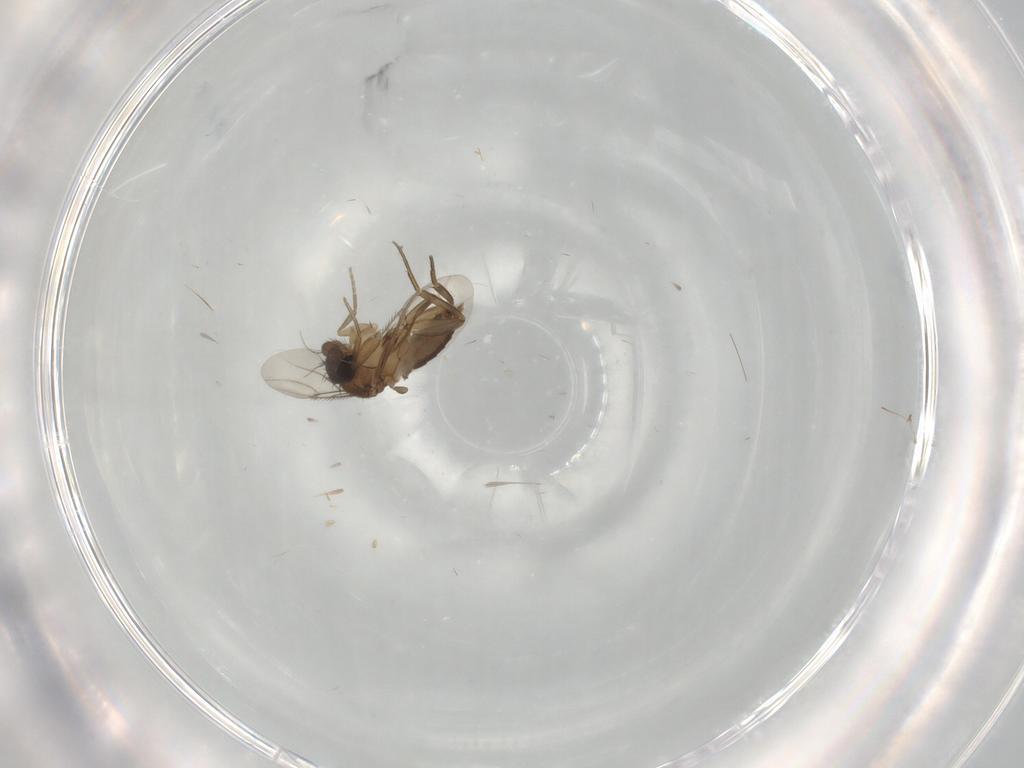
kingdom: Animalia
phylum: Arthropoda
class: Insecta
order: Diptera
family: Phoridae
